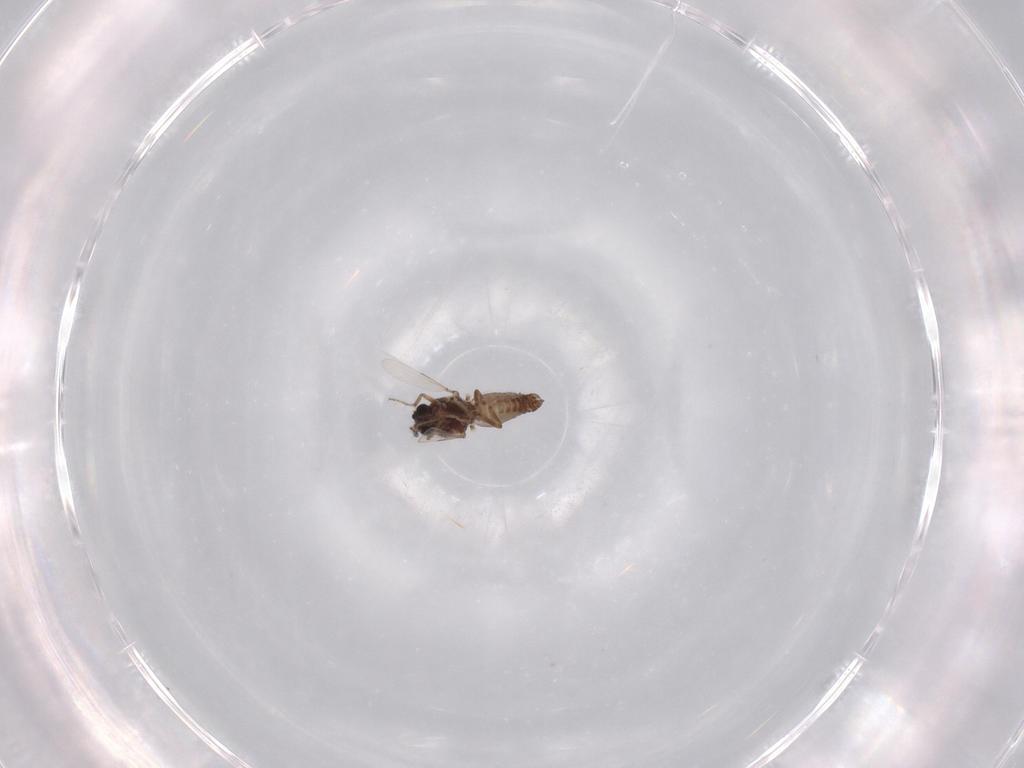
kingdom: Animalia
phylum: Arthropoda
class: Insecta
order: Diptera
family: Ceratopogonidae
